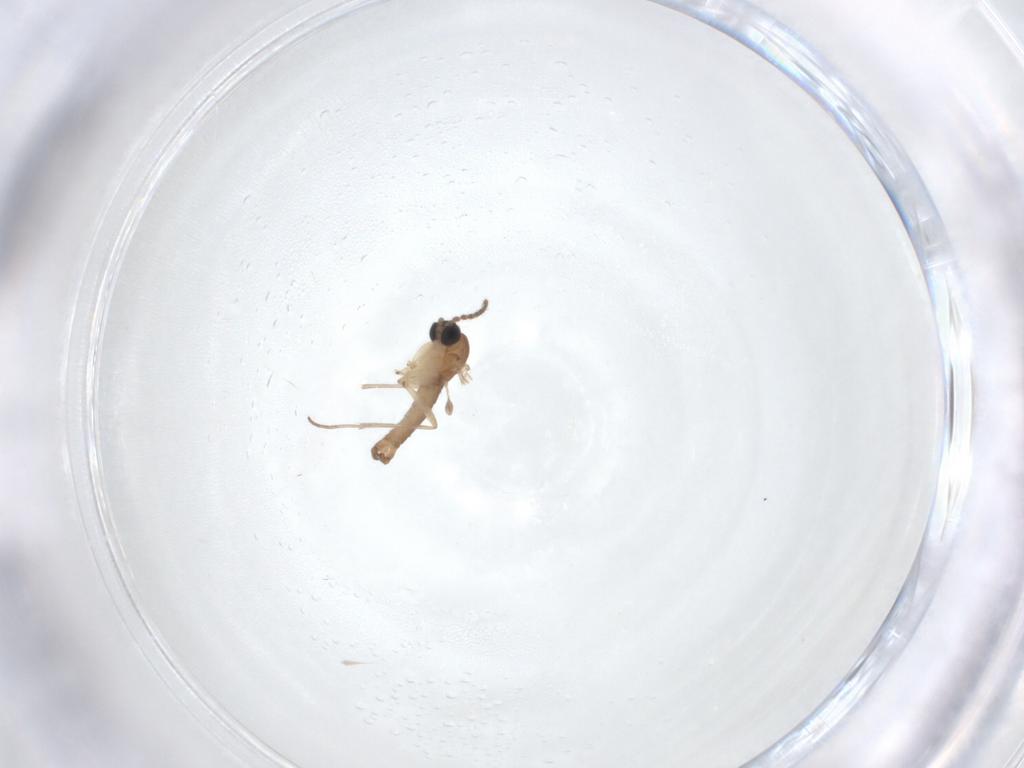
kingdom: Animalia
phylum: Arthropoda
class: Insecta
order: Diptera
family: Sciaridae
